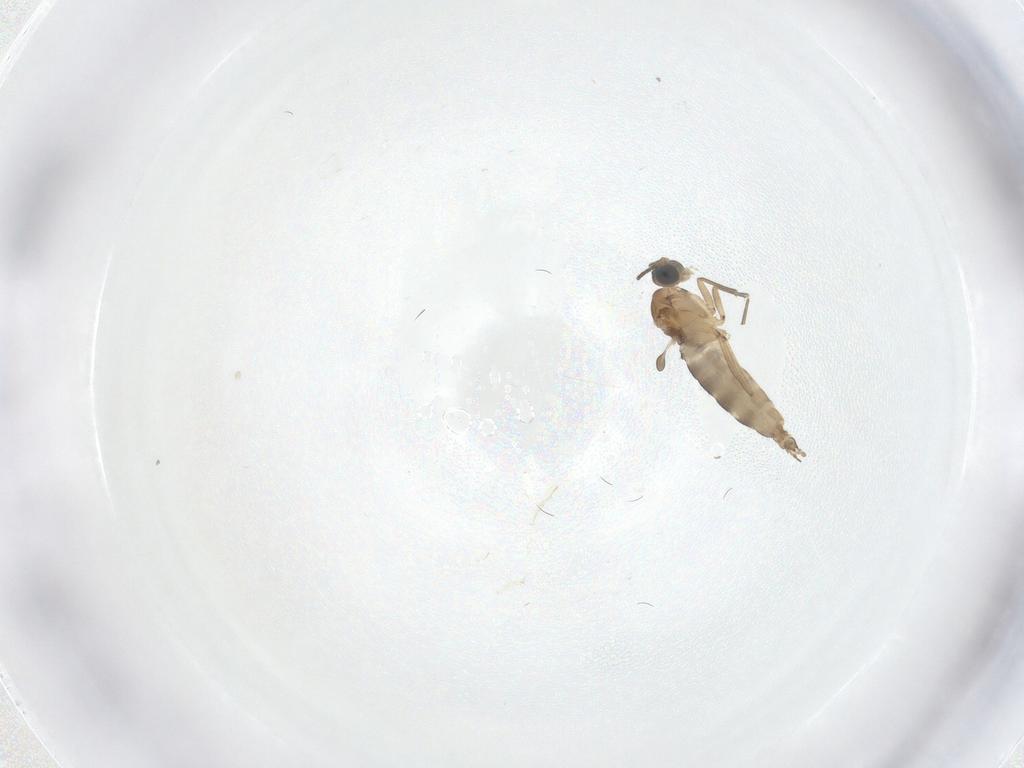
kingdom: Animalia
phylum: Arthropoda
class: Insecta
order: Diptera
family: Sciaridae
